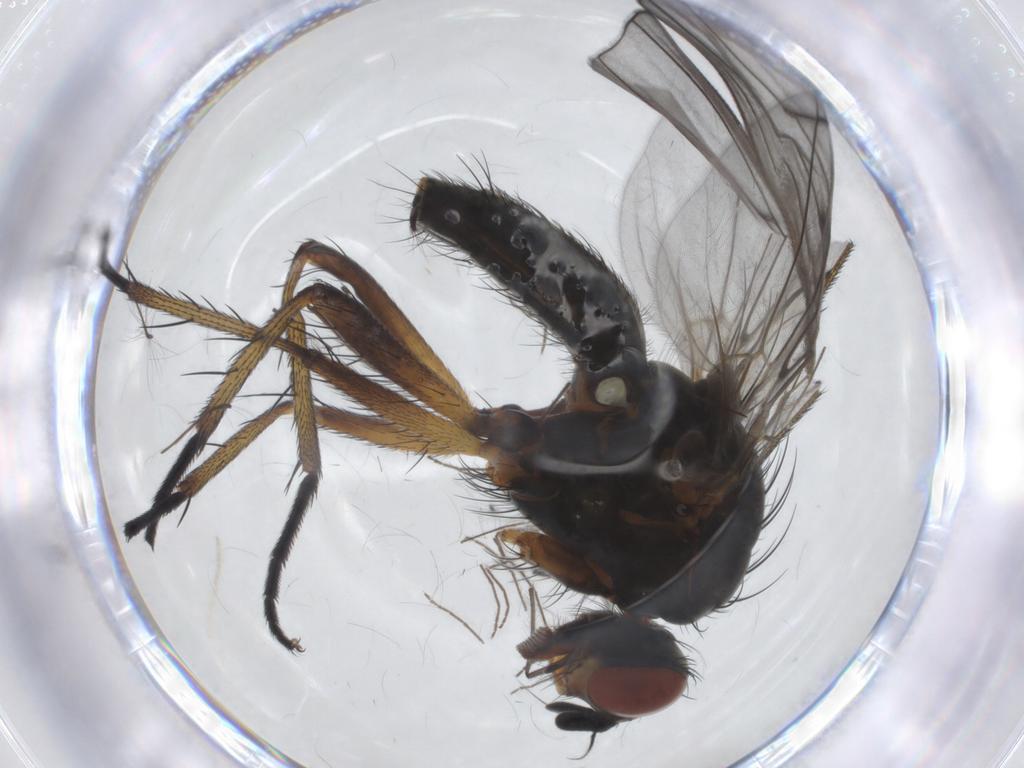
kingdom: Animalia
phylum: Arthropoda
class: Insecta
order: Diptera
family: Anthomyiidae
